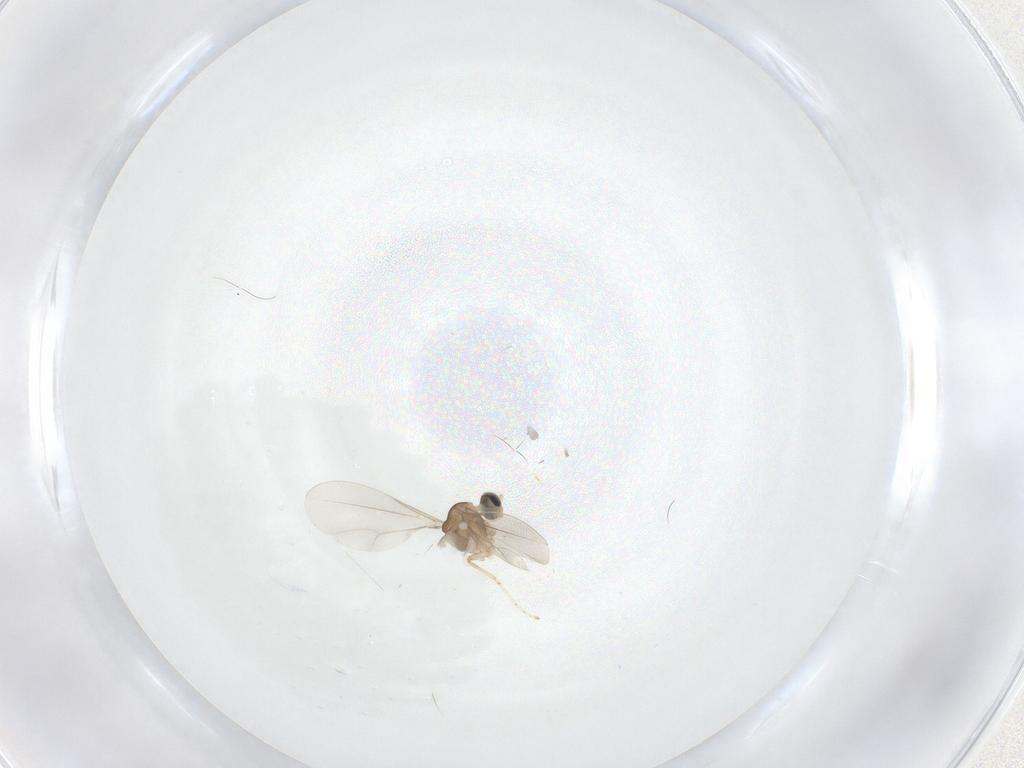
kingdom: Animalia
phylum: Arthropoda
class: Insecta
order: Diptera
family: Cecidomyiidae
